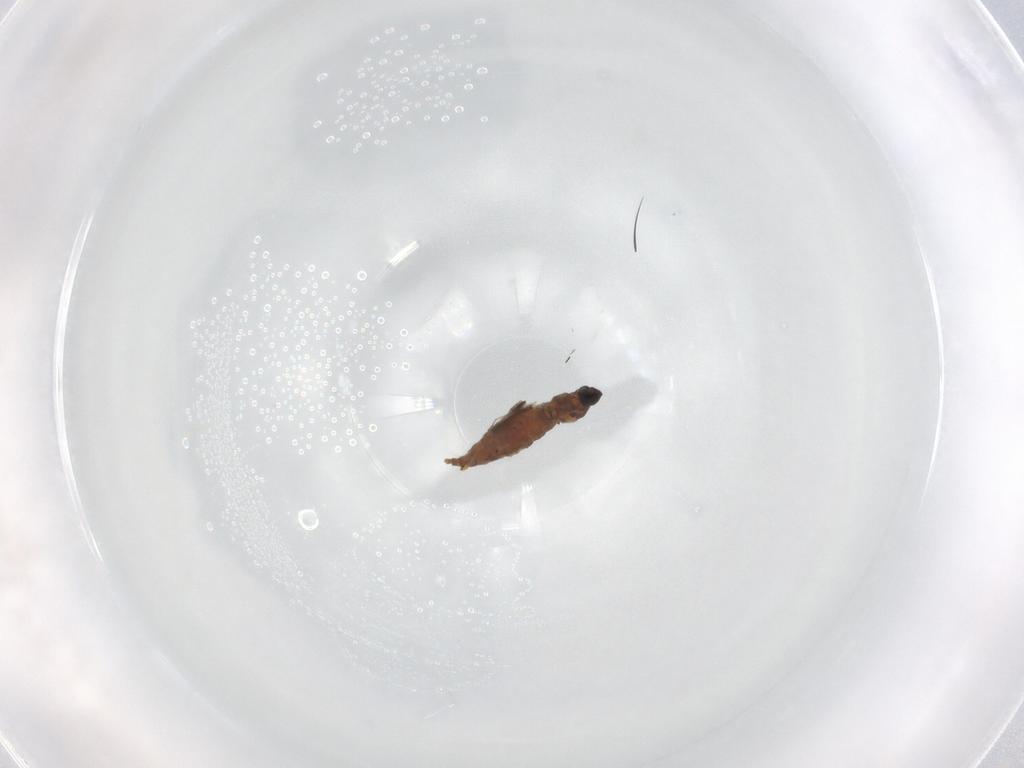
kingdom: Animalia
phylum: Arthropoda
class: Insecta
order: Diptera
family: Cecidomyiidae
